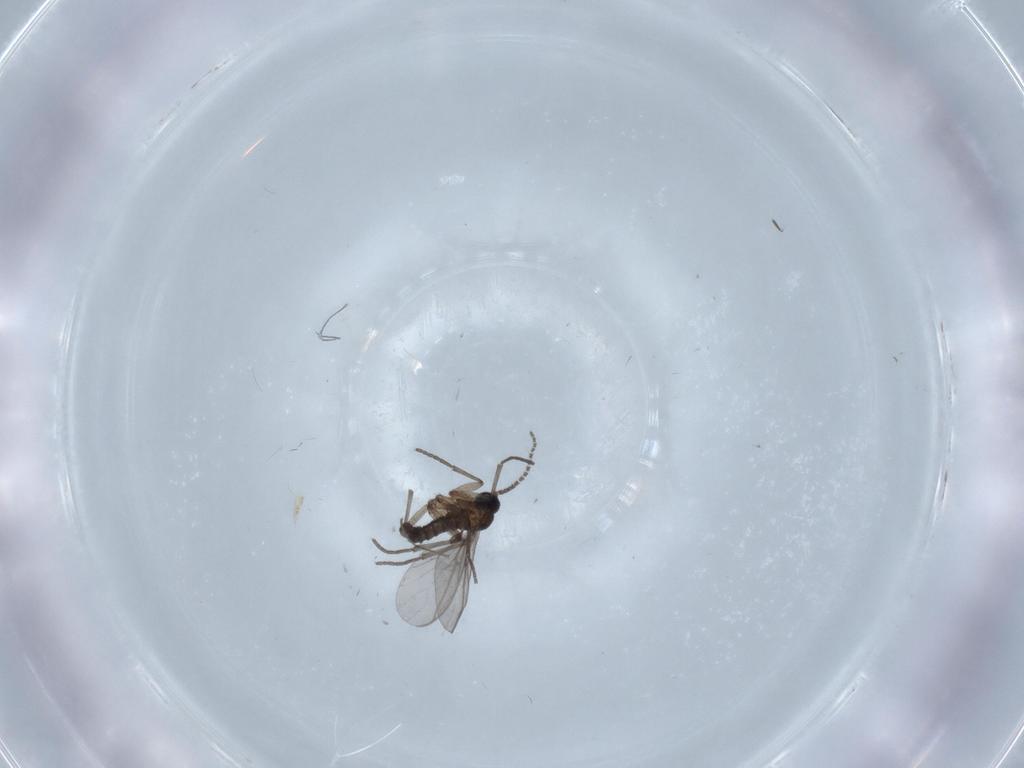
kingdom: Animalia
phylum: Arthropoda
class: Insecta
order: Diptera
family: Chironomidae
